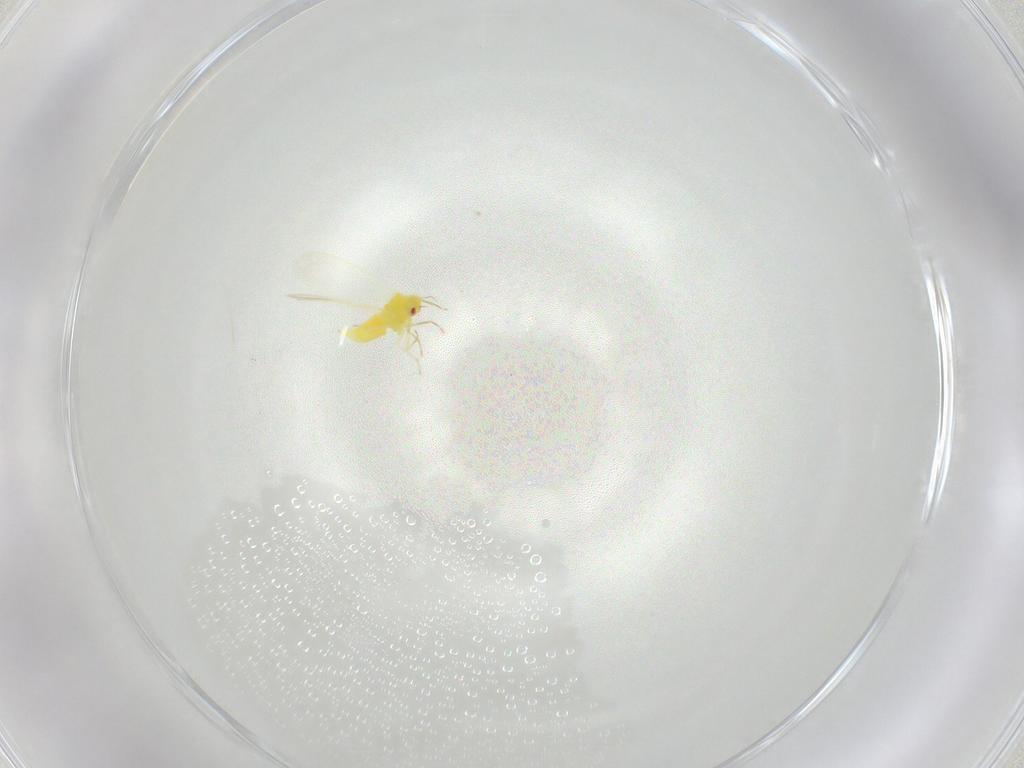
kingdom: Animalia
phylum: Arthropoda
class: Insecta
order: Hemiptera
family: Aleyrodidae
